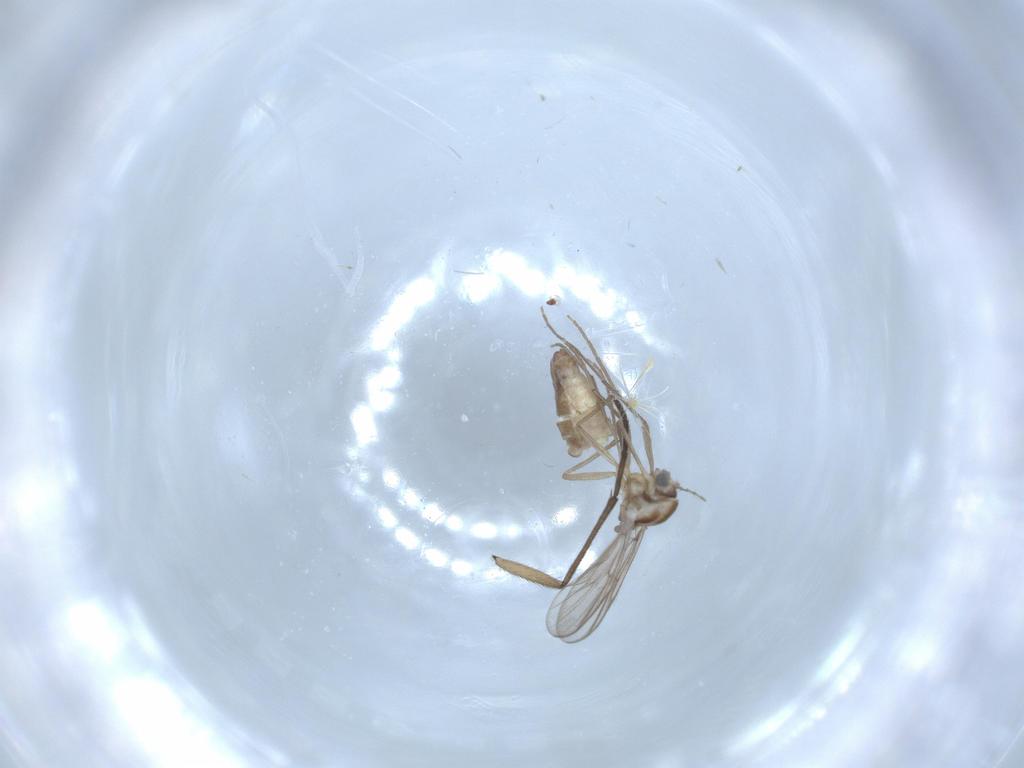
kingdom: Animalia
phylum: Arthropoda
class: Insecta
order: Diptera
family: Chironomidae
